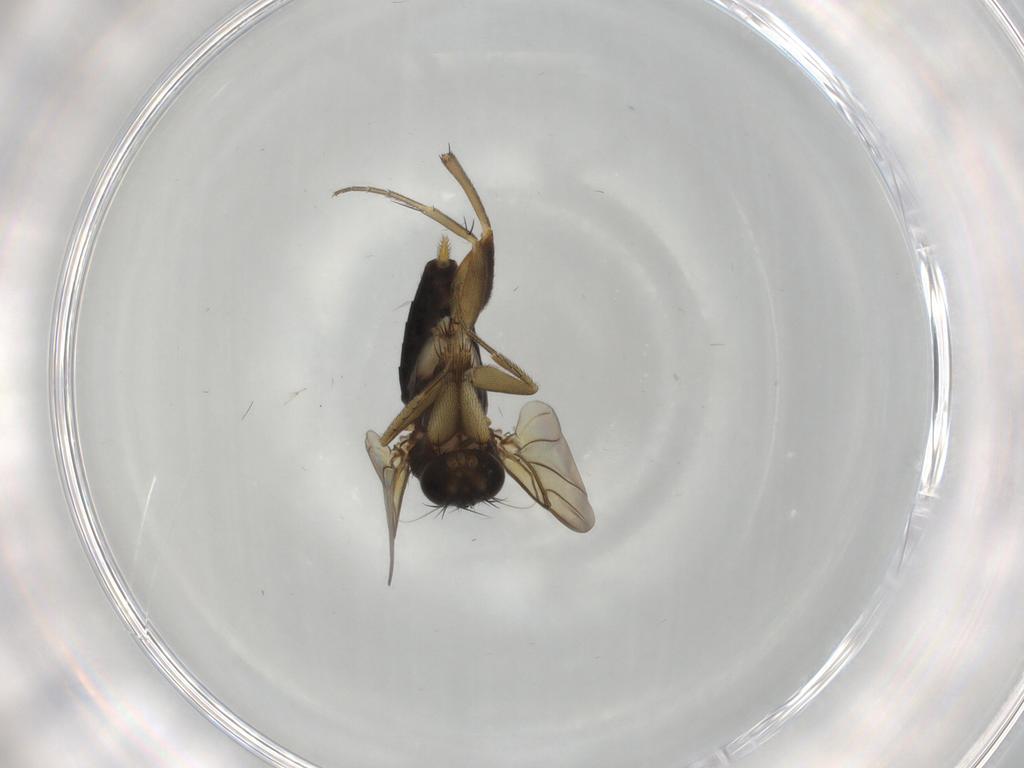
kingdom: Animalia
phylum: Arthropoda
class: Insecta
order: Diptera
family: Phoridae
